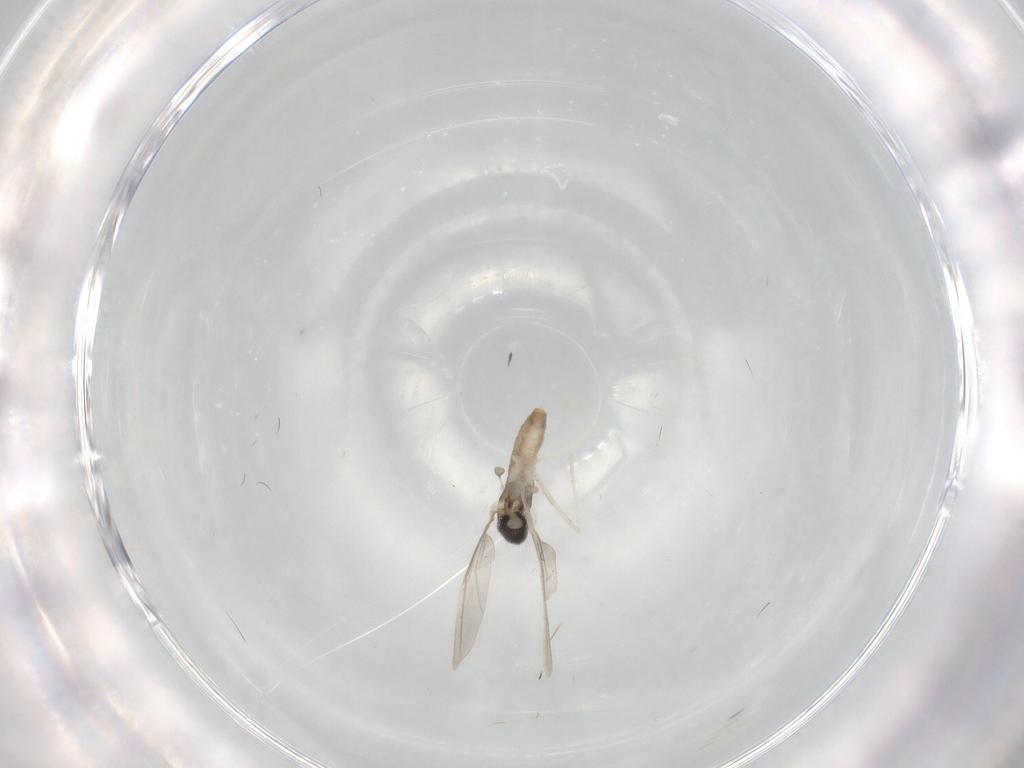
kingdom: Animalia
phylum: Arthropoda
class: Insecta
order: Diptera
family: Cecidomyiidae
